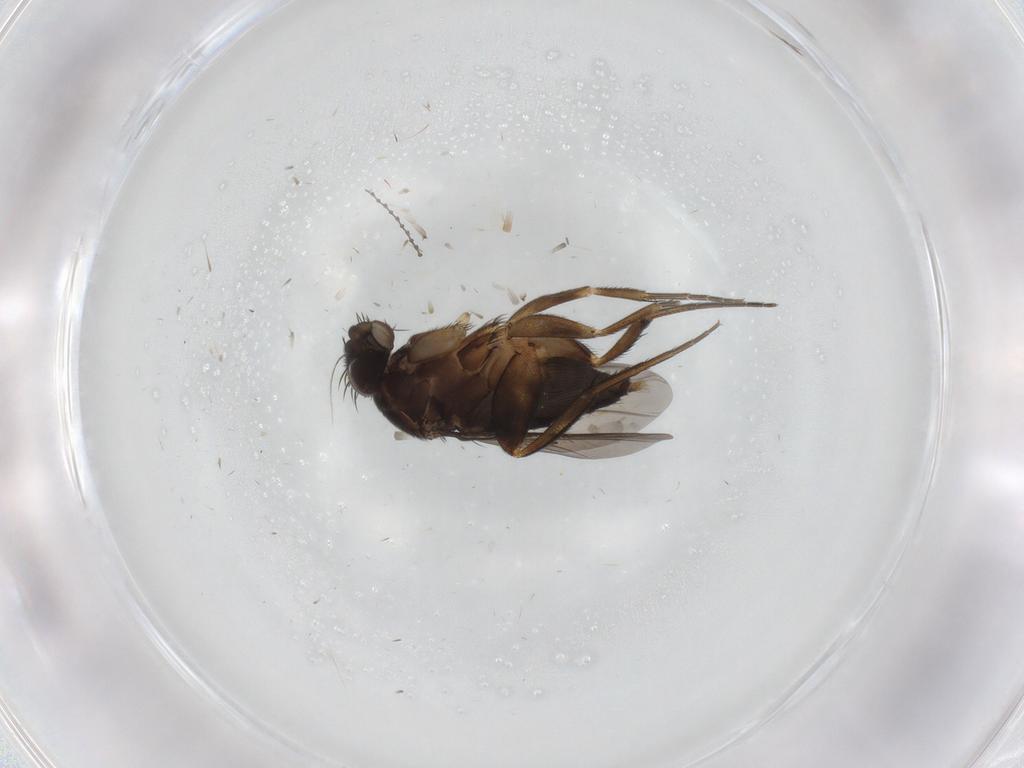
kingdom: Animalia
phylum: Arthropoda
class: Insecta
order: Diptera
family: Phoridae
